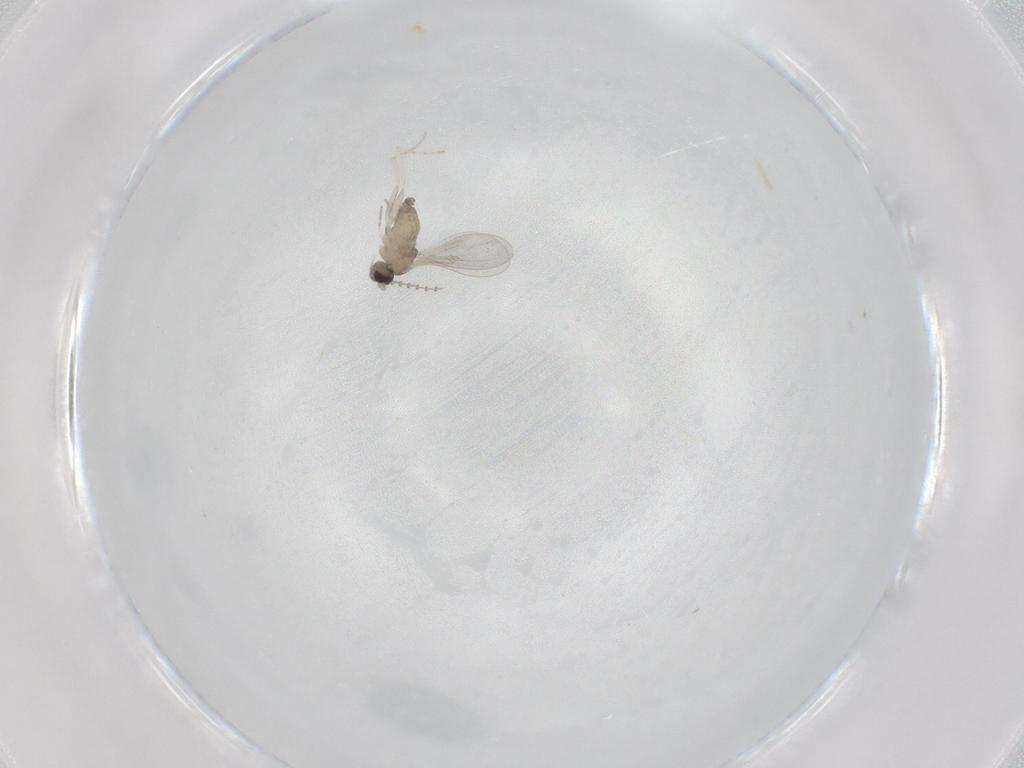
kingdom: Animalia
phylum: Arthropoda
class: Insecta
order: Diptera
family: Cecidomyiidae
